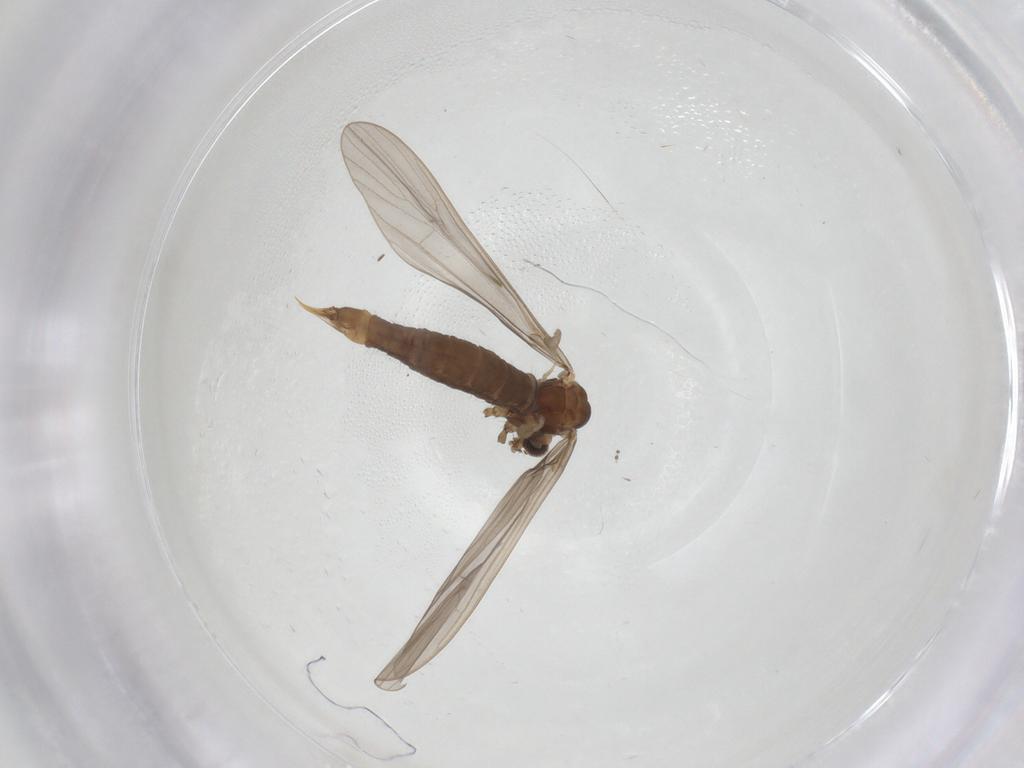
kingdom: Animalia
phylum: Arthropoda
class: Insecta
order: Diptera
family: Limoniidae
